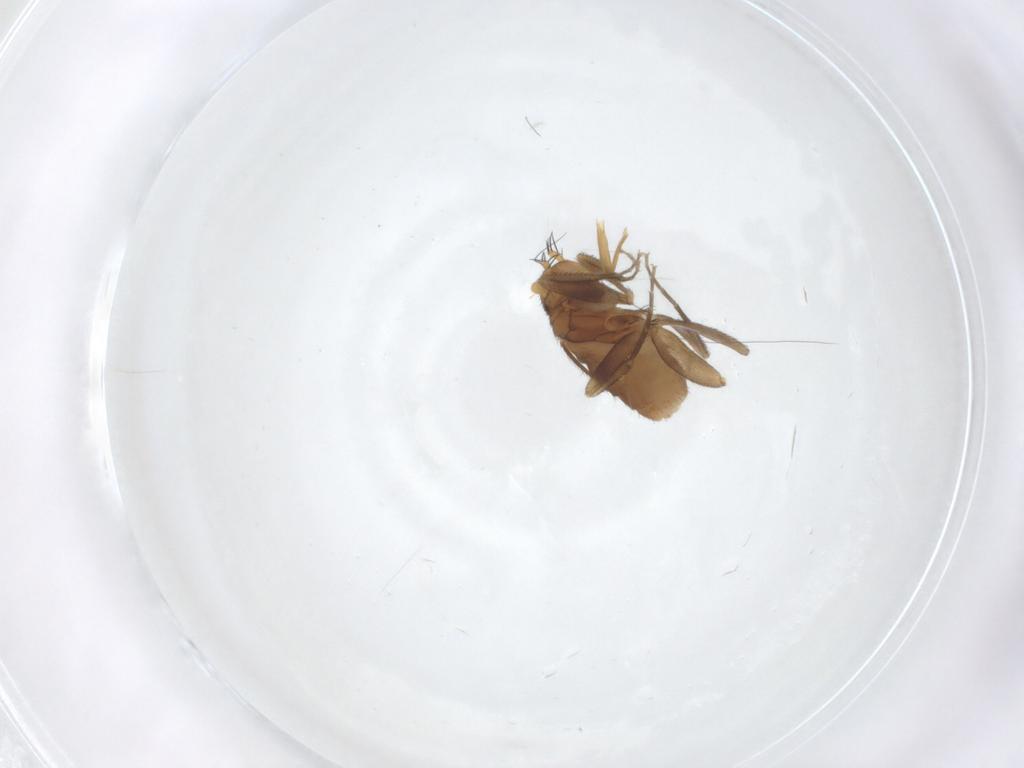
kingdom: Animalia
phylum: Arthropoda
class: Insecta
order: Diptera
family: Phoridae
